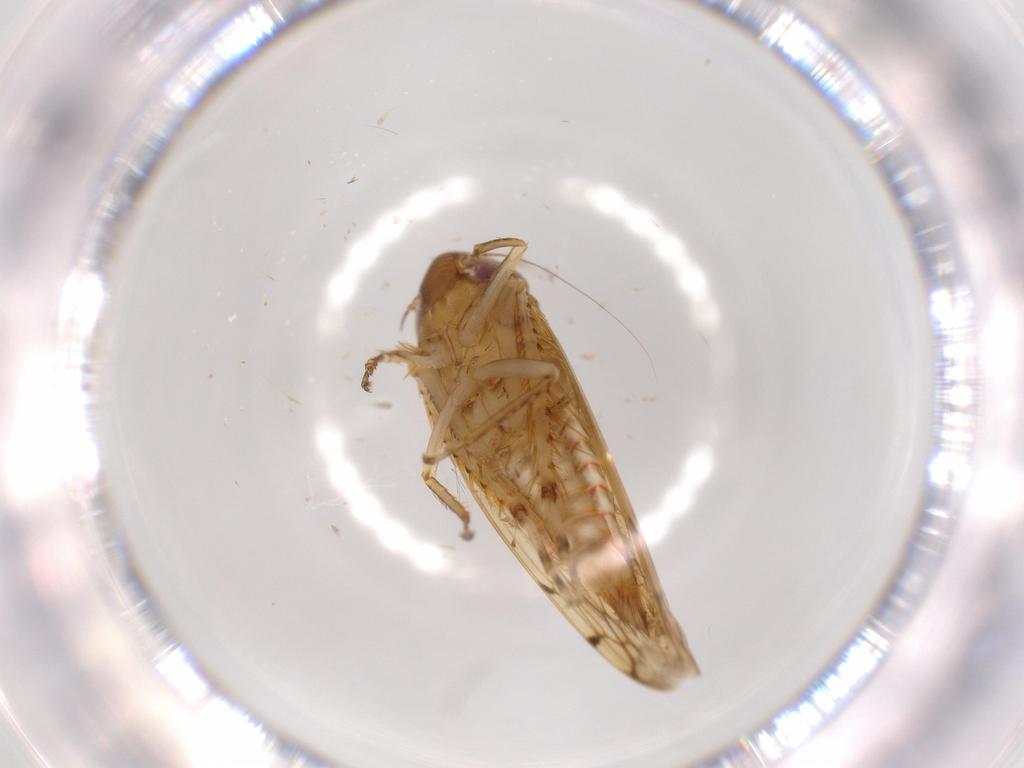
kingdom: Animalia
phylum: Arthropoda
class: Insecta
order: Hemiptera
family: Cicadellidae
